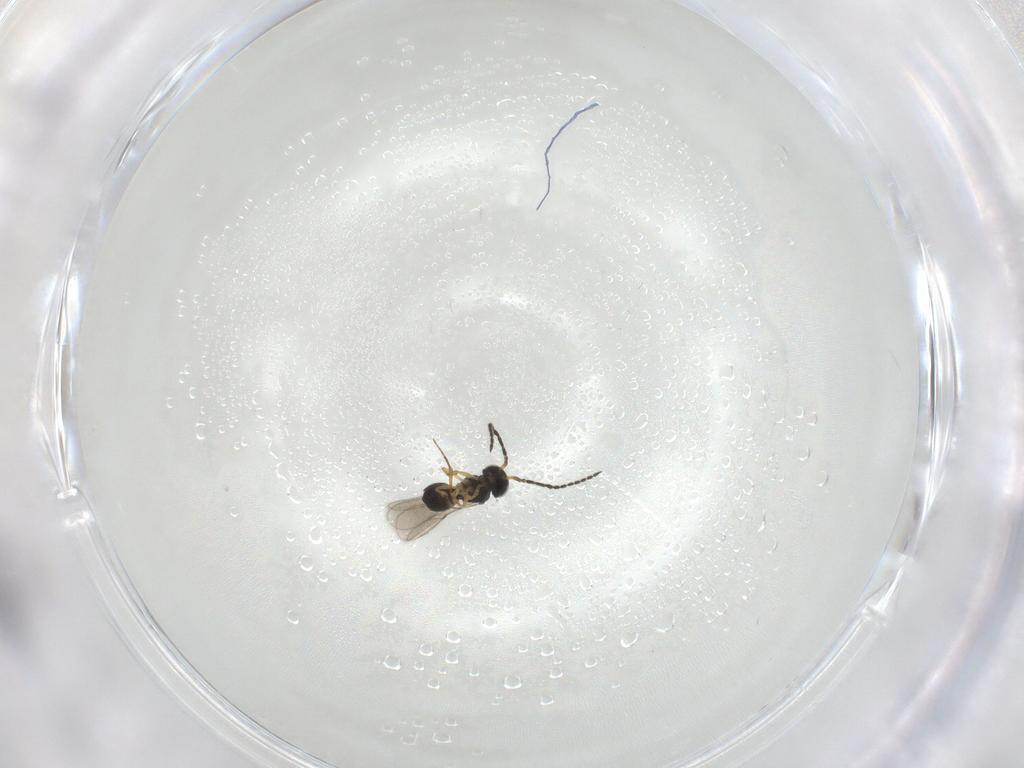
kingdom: Animalia
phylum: Arthropoda
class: Insecta
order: Hymenoptera
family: Scelionidae
